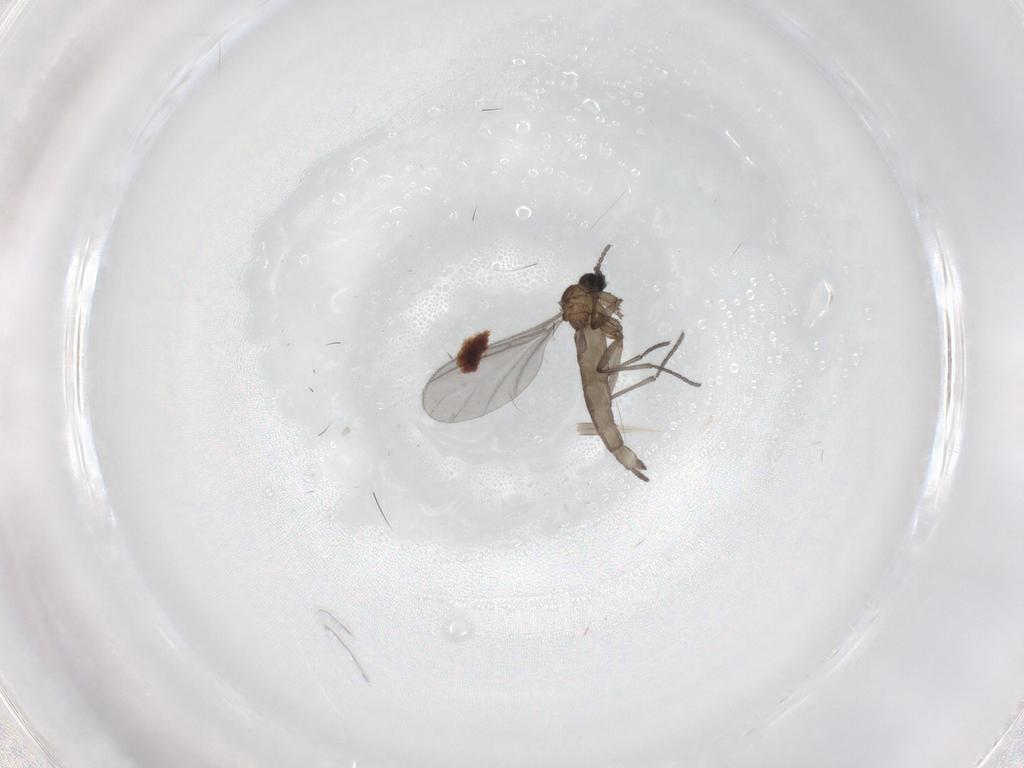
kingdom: Animalia
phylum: Arthropoda
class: Insecta
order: Diptera
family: Sciaridae
